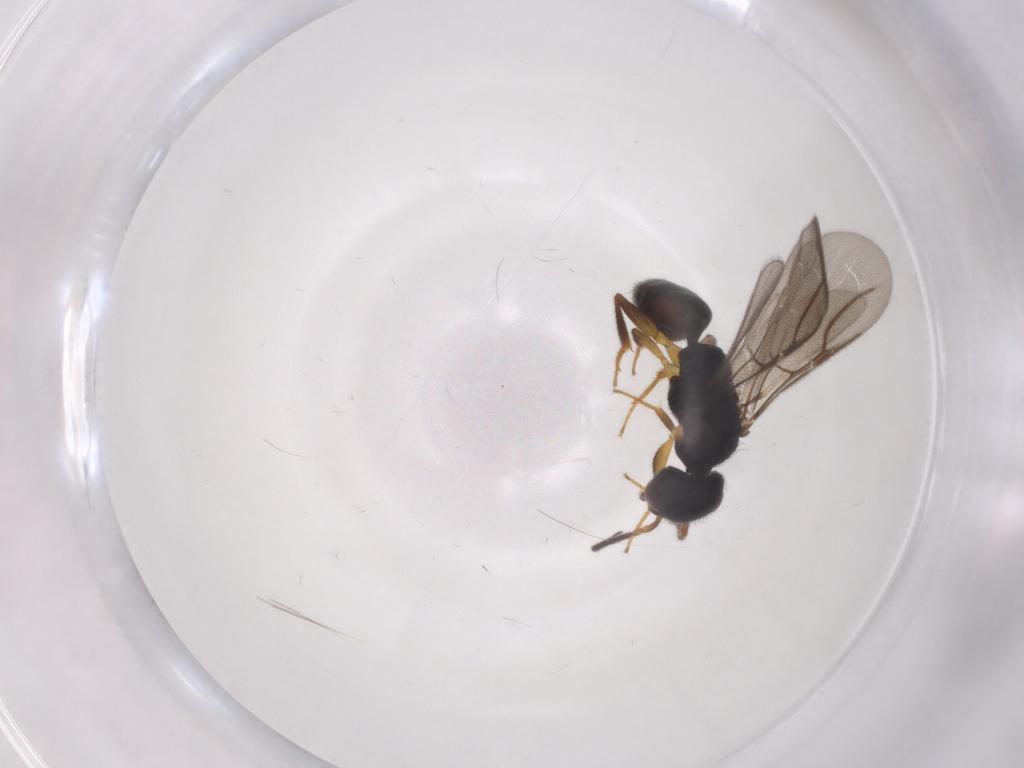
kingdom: Animalia
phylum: Arthropoda
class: Insecta
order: Hymenoptera
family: Bethylidae
